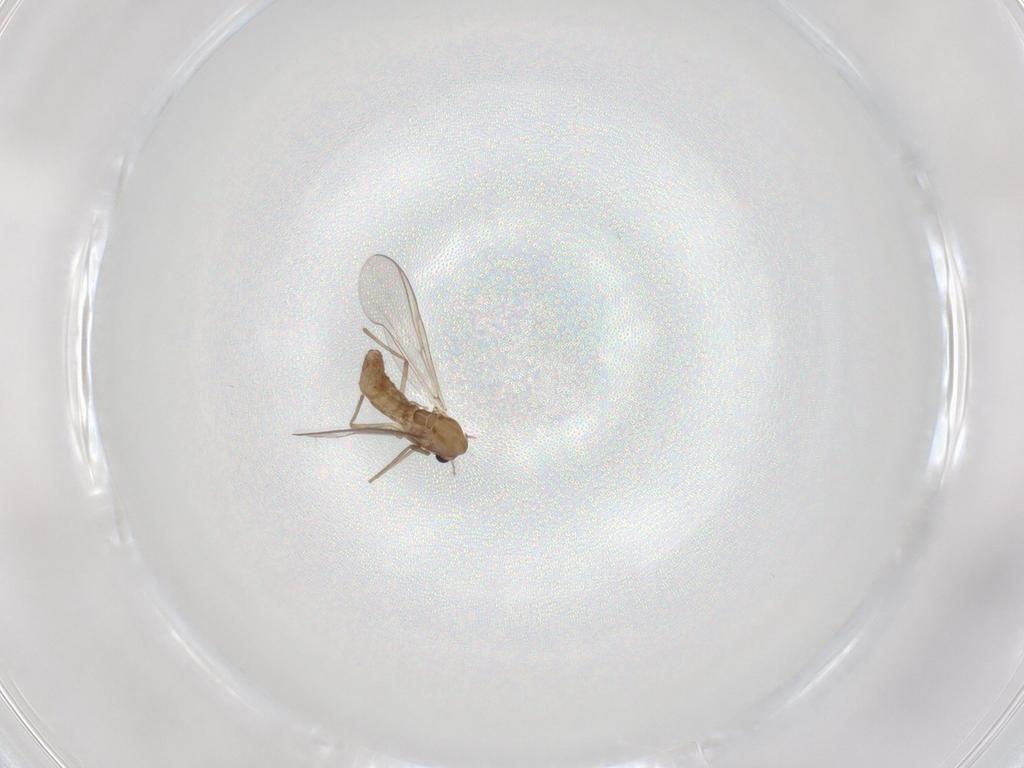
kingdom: Animalia
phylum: Arthropoda
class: Insecta
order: Diptera
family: Chironomidae
